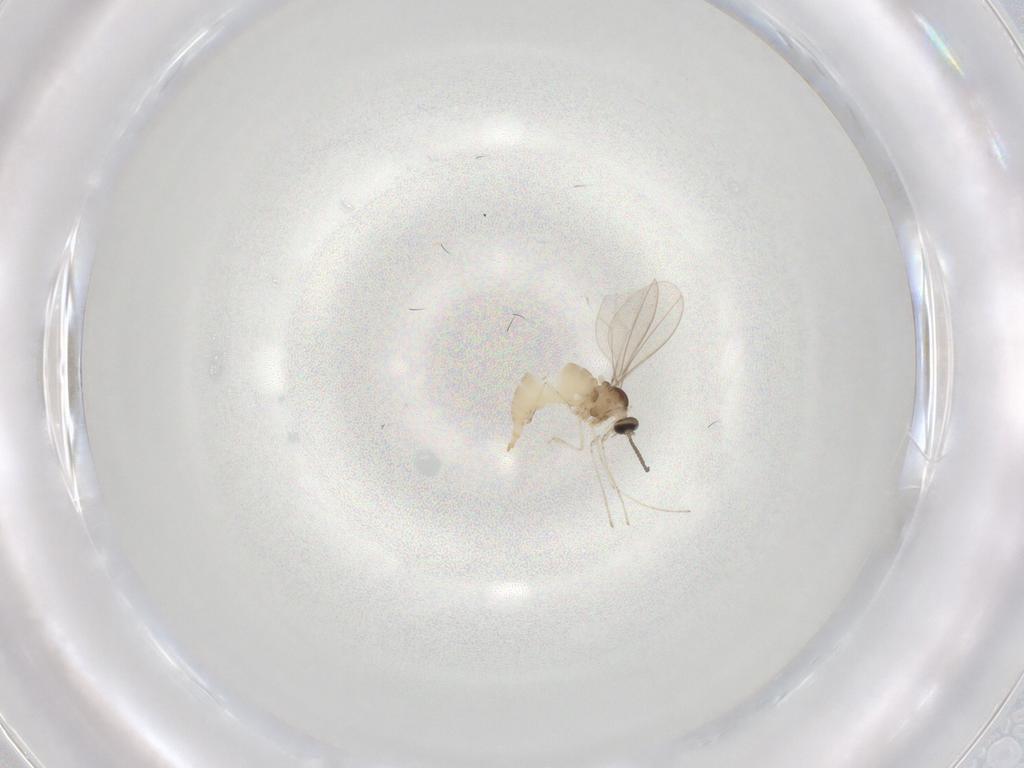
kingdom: Animalia
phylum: Arthropoda
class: Insecta
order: Diptera
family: Cecidomyiidae
